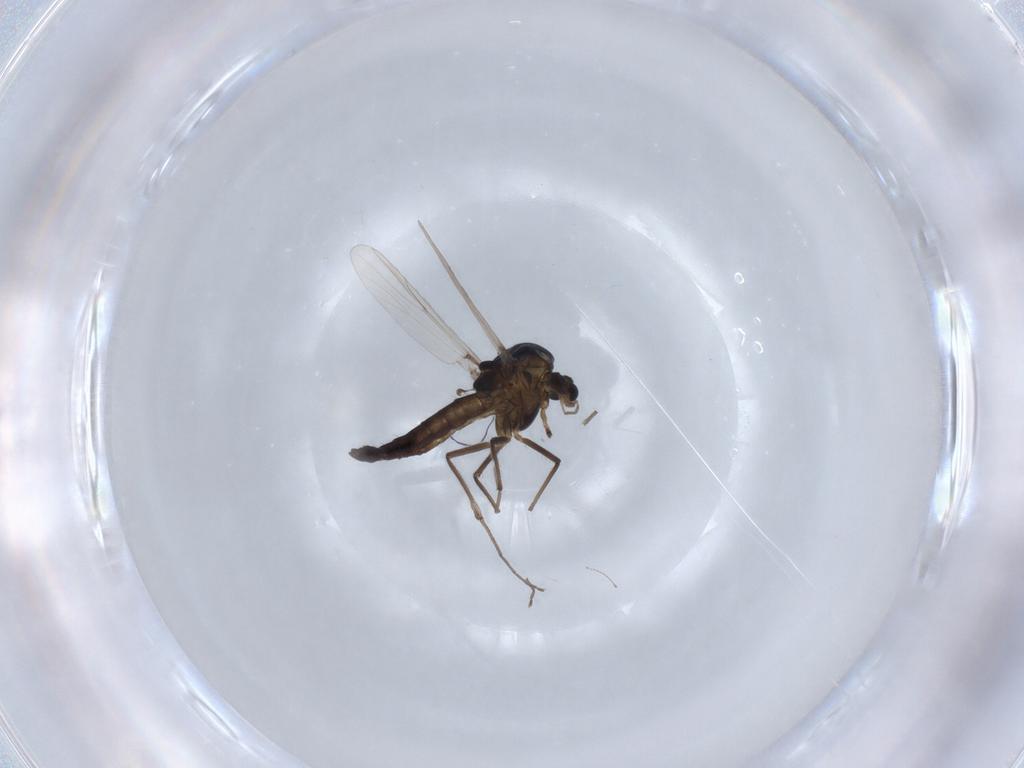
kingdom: Animalia
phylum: Arthropoda
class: Insecta
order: Diptera
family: Chironomidae
